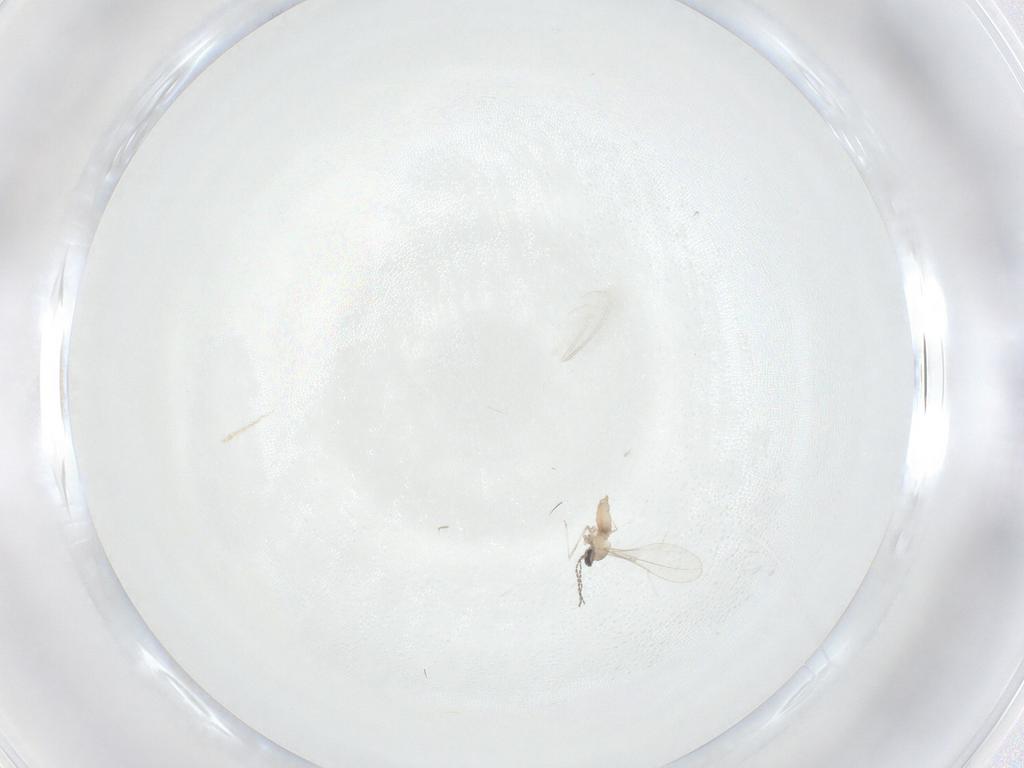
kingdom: Animalia
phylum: Arthropoda
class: Insecta
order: Diptera
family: Cecidomyiidae
